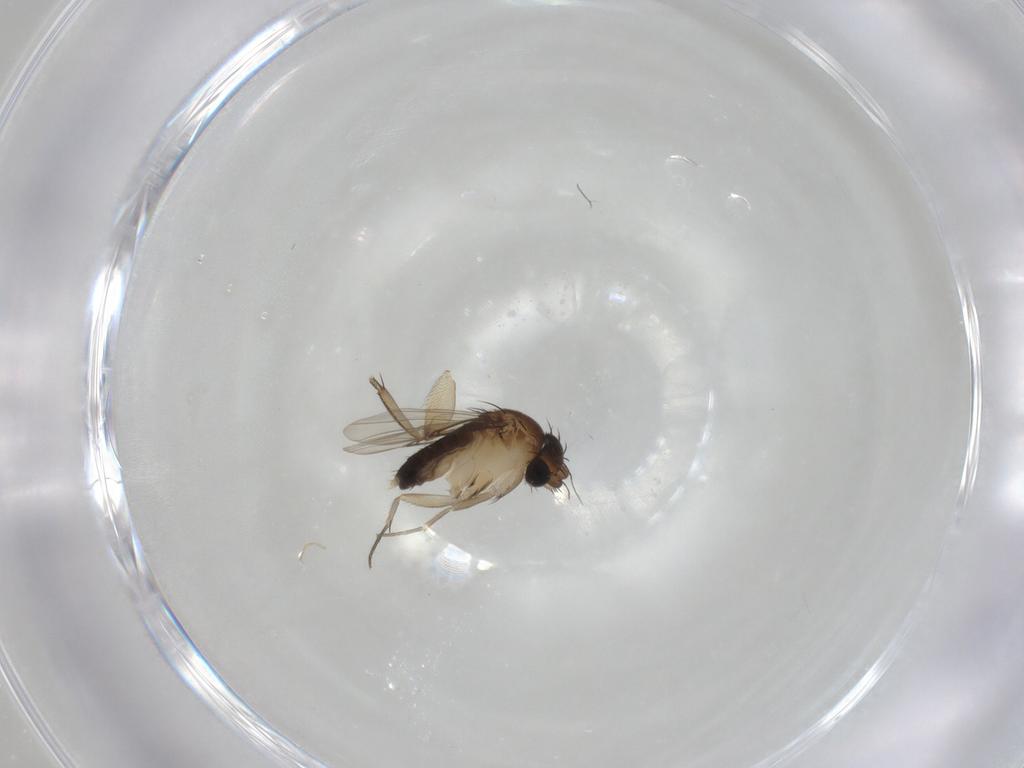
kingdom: Animalia
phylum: Arthropoda
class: Insecta
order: Diptera
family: Phoridae
